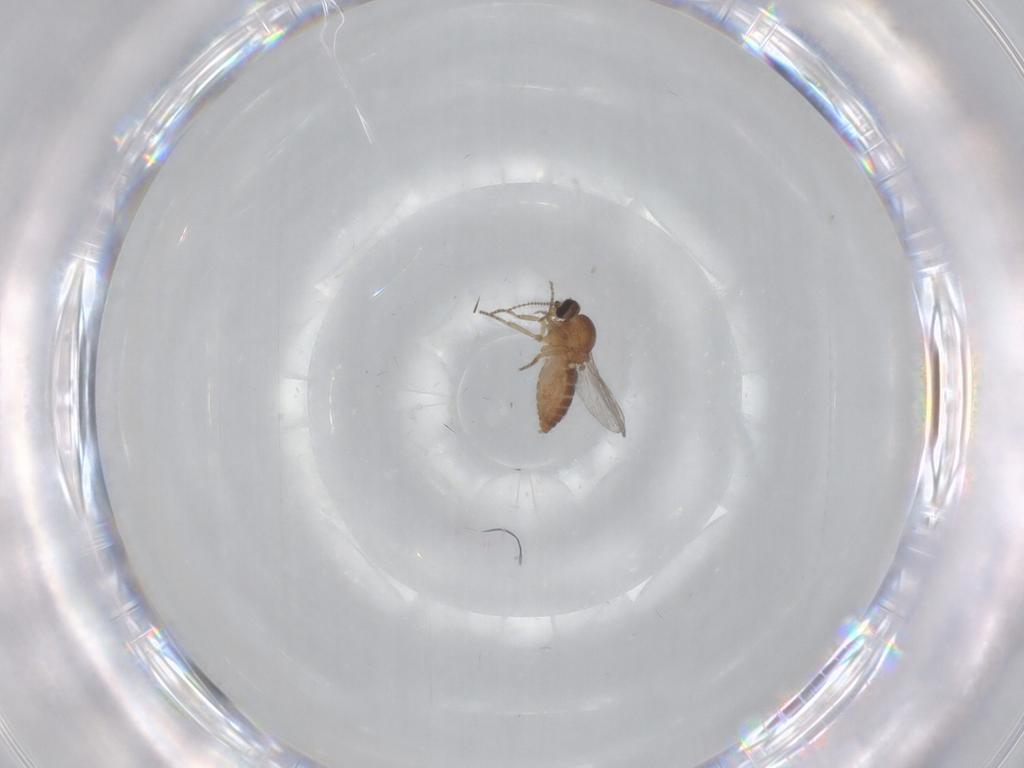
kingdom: Animalia
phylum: Arthropoda
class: Insecta
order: Diptera
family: Ceratopogonidae
